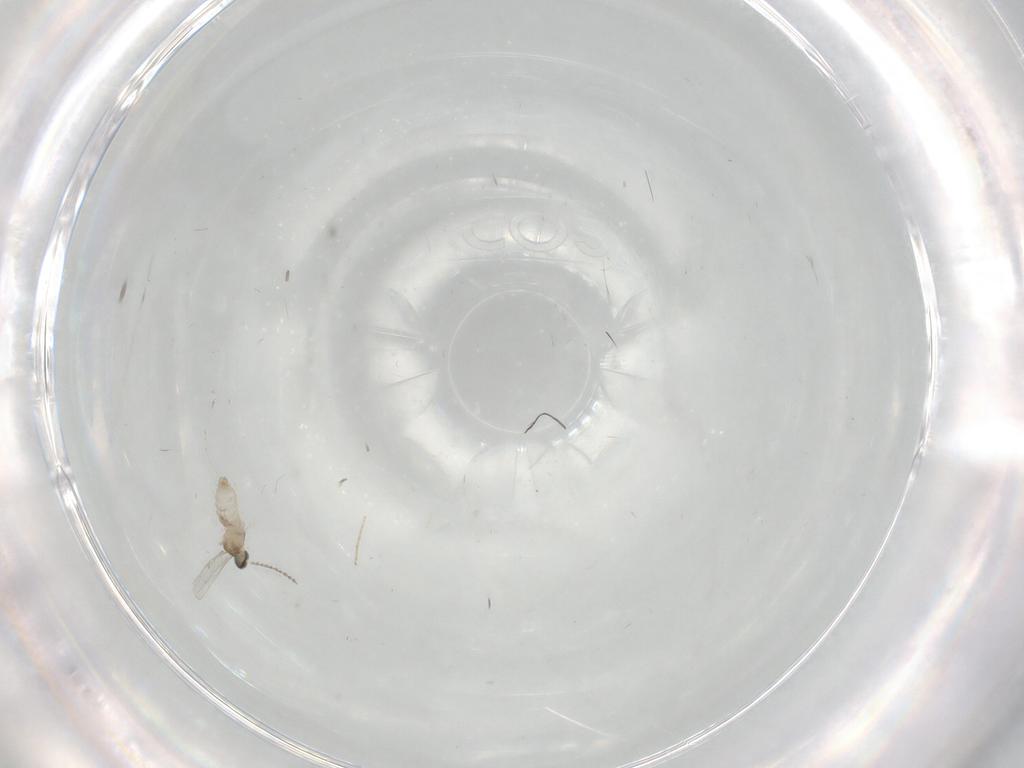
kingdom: Animalia
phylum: Arthropoda
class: Insecta
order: Diptera
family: Cecidomyiidae
